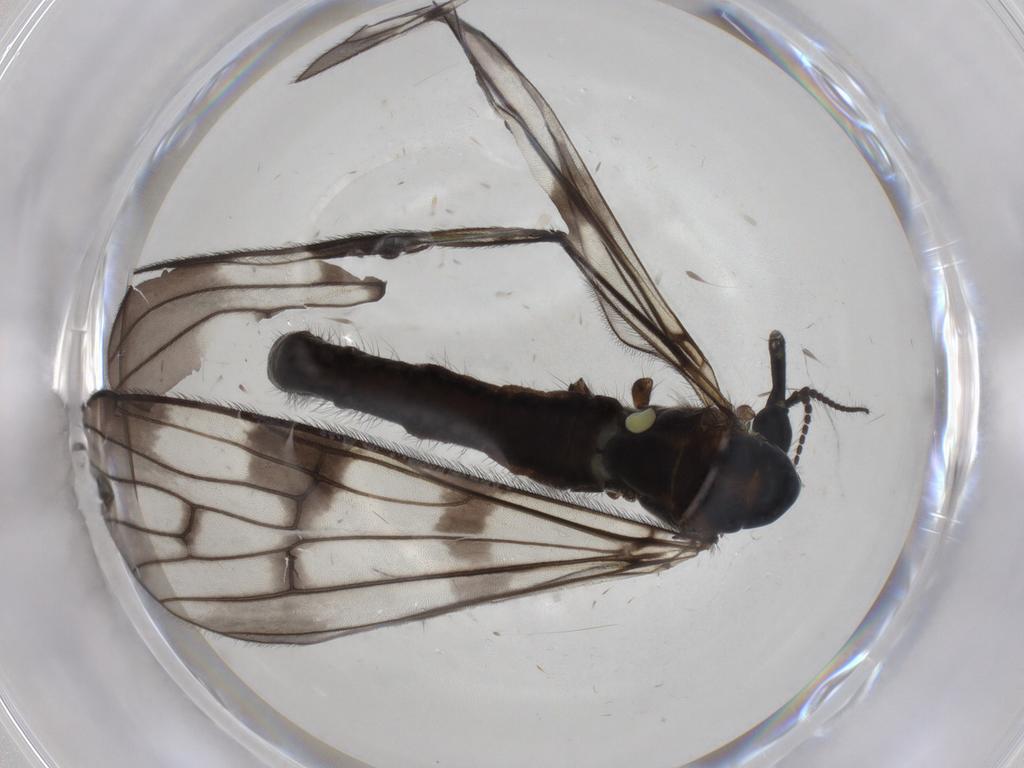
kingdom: Animalia
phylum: Arthropoda
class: Insecta
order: Diptera
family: Limoniidae
